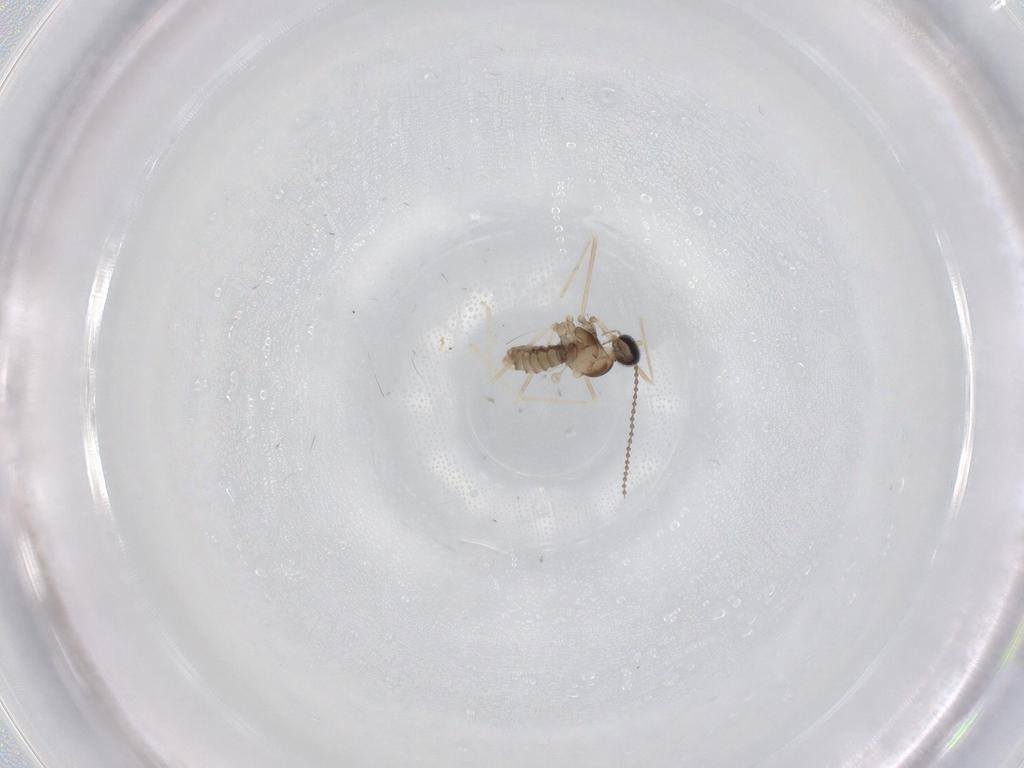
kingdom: Animalia
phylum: Arthropoda
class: Insecta
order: Diptera
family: Cecidomyiidae
